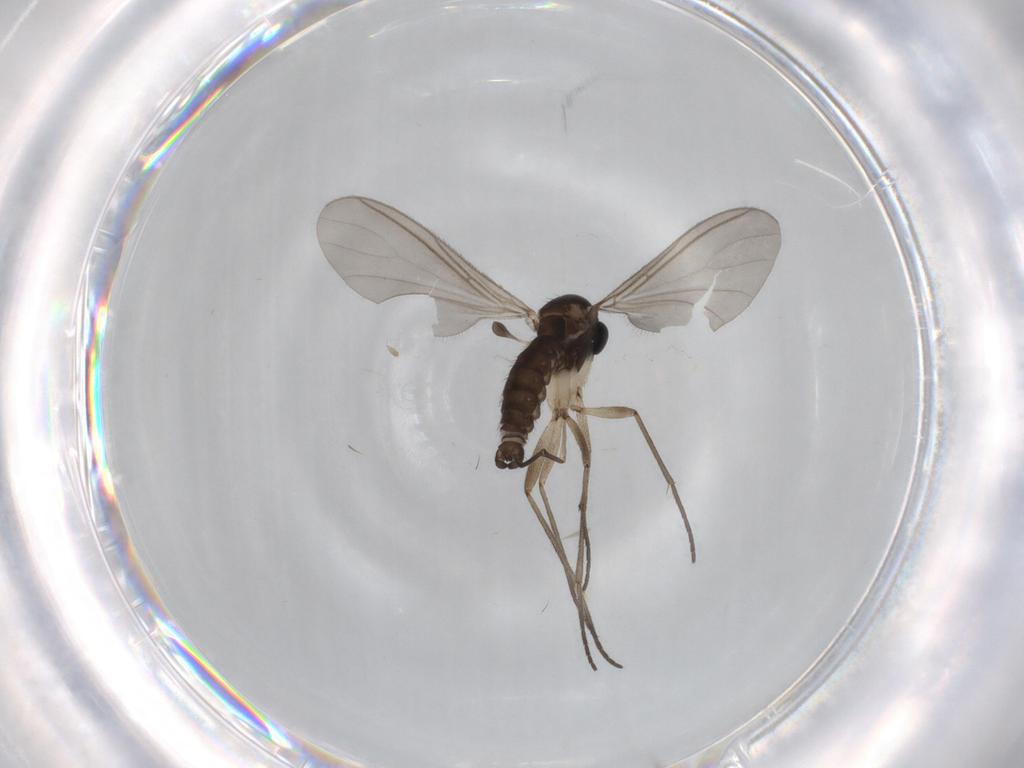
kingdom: Animalia
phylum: Arthropoda
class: Insecta
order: Diptera
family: Sciaridae
